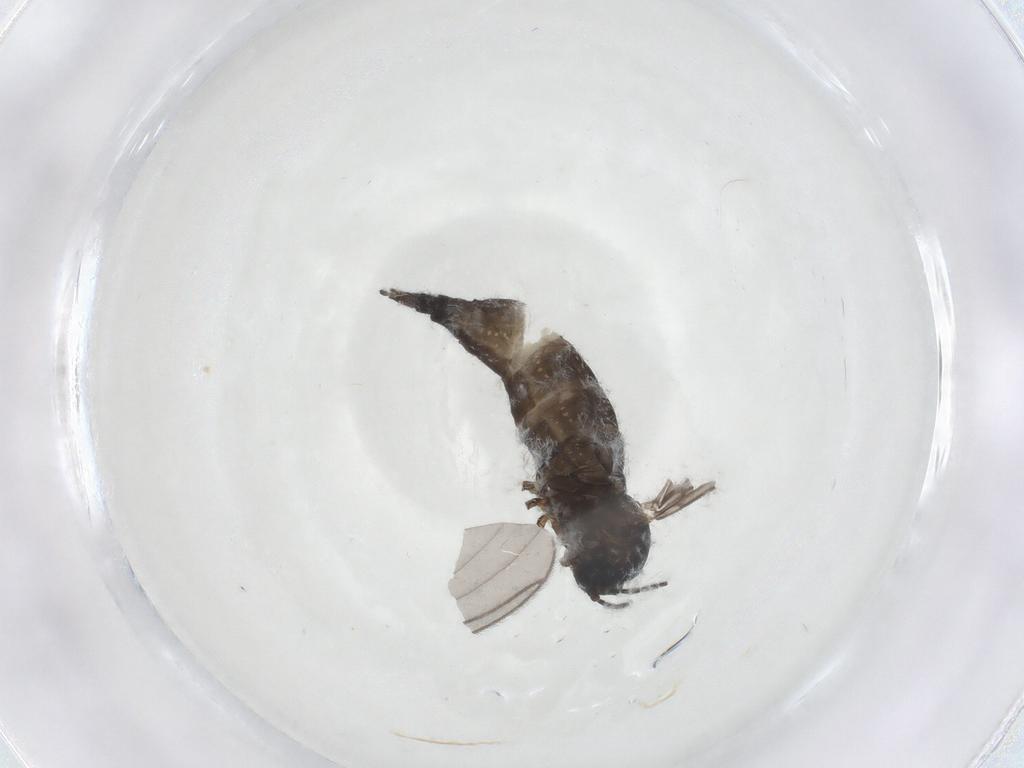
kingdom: Animalia
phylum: Arthropoda
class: Insecta
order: Diptera
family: Sciaridae
